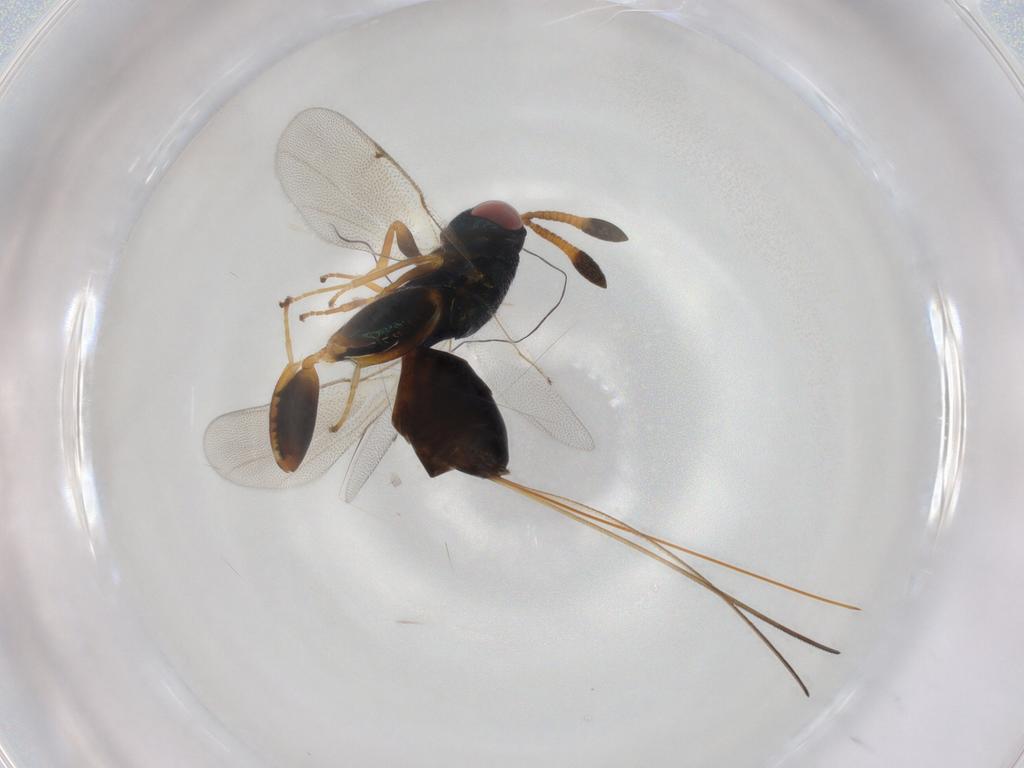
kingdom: Animalia
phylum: Arthropoda
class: Insecta
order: Hymenoptera
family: Torymidae
